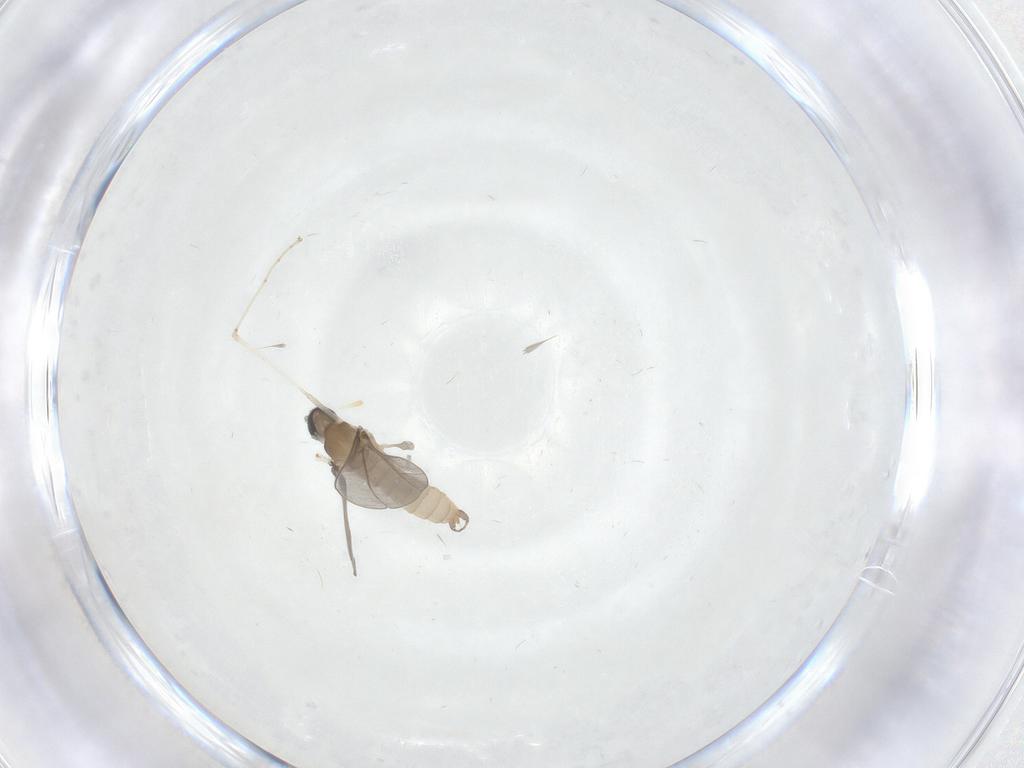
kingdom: Animalia
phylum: Arthropoda
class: Insecta
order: Diptera
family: Cecidomyiidae
